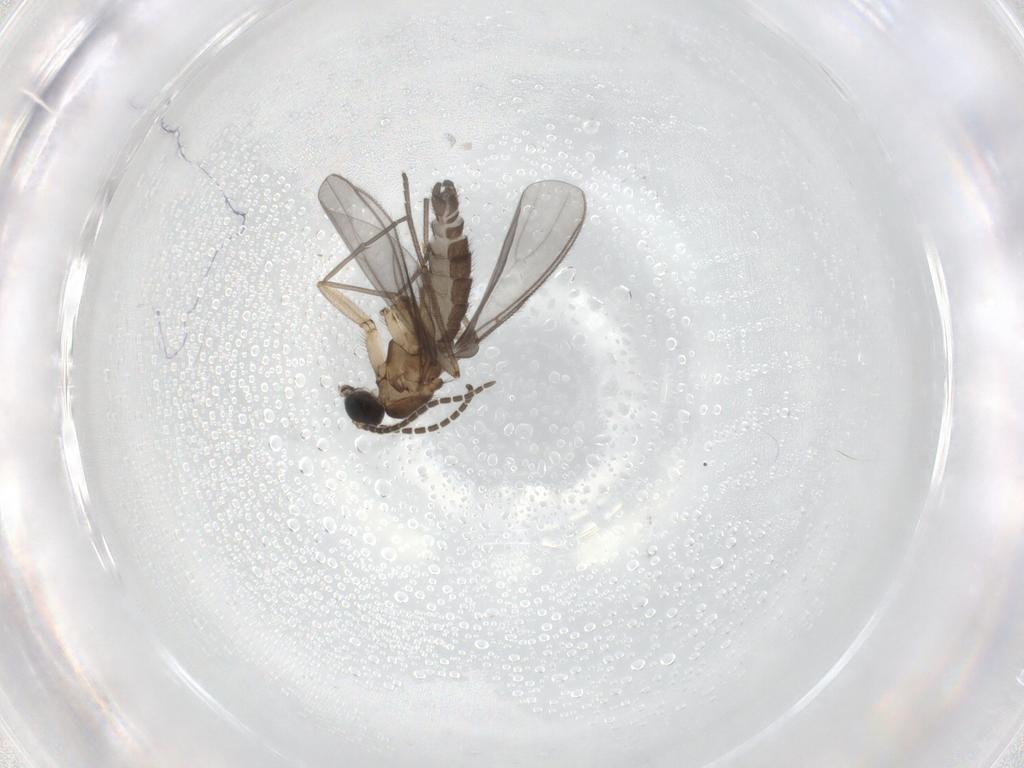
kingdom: Animalia
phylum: Arthropoda
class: Insecta
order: Diptera
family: Sciaridae
